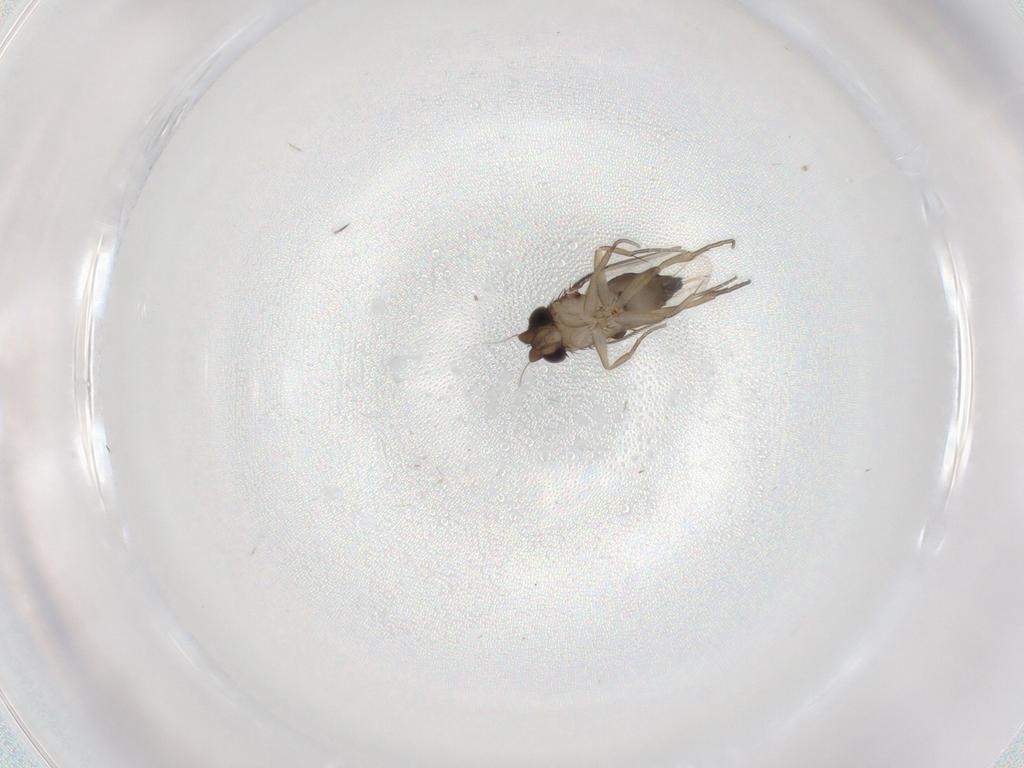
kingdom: Animalia
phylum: Arthropoda
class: Insecta
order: Diptera
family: Phoridae
